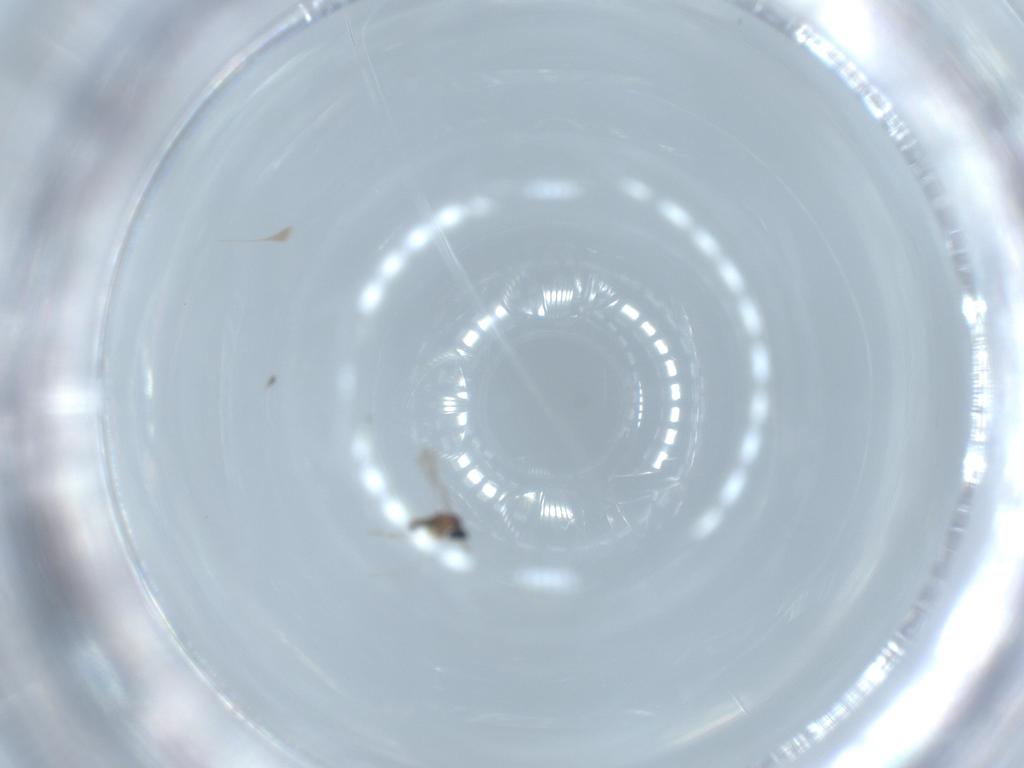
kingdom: Animalia
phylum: Arthropoda
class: Insecta
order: Diptera
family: Cecidomyiidae
